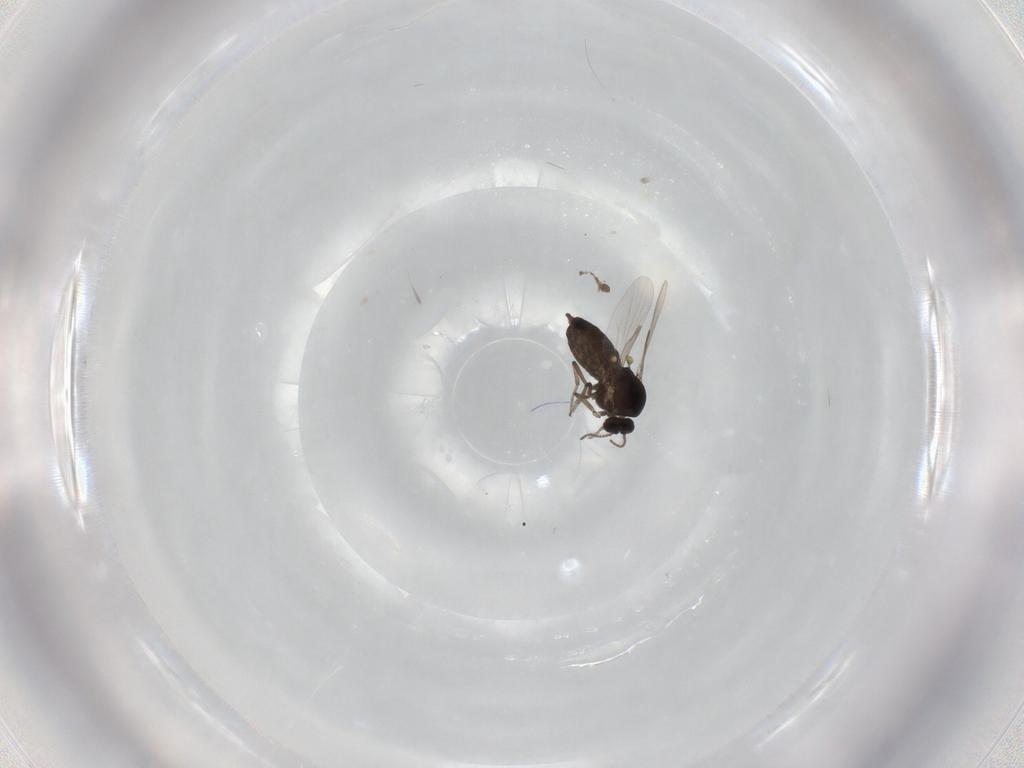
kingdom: Animalia
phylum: Arthropoda
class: Insecta
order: Diptera
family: Ceratopogonidae
